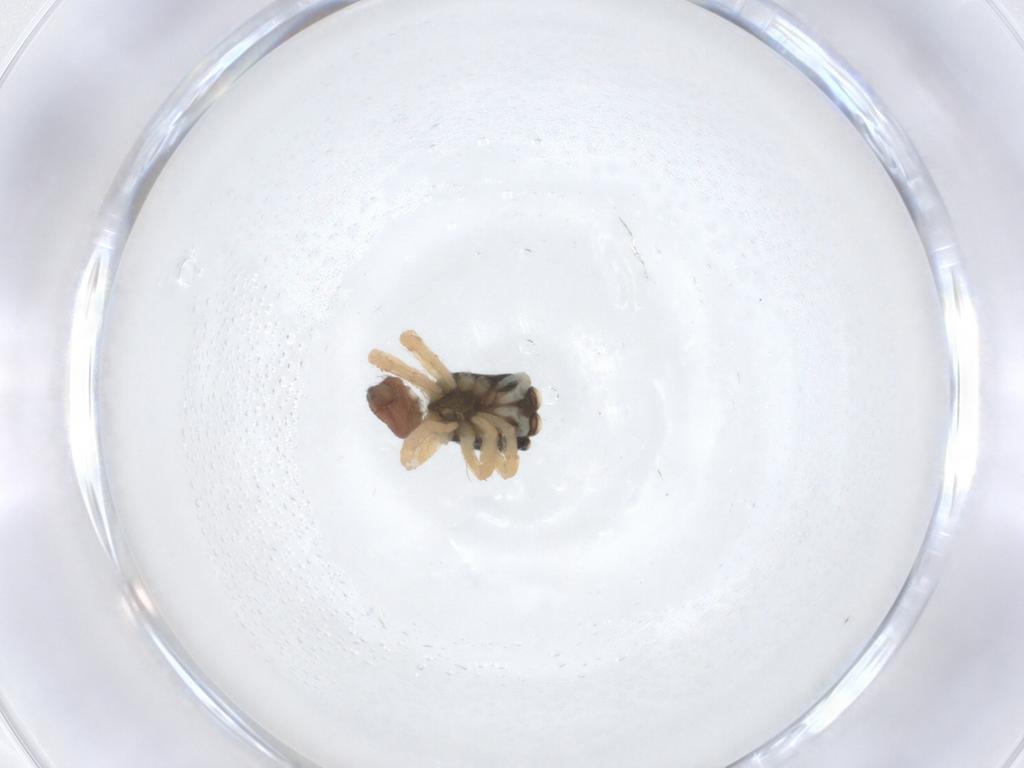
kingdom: Animalia
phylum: Arthropoda
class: Arachnida
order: Araneae
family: Salticidae
